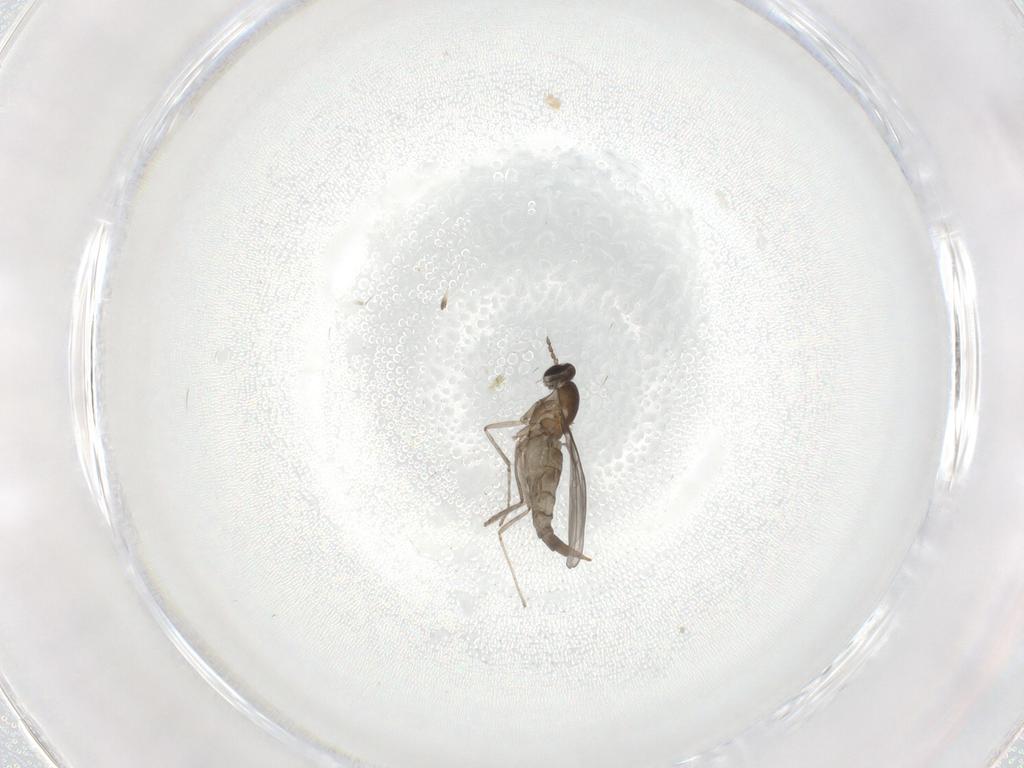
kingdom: Animalia
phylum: Arthropoda
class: Insecta
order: Diptera
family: Cecidomyiidae
